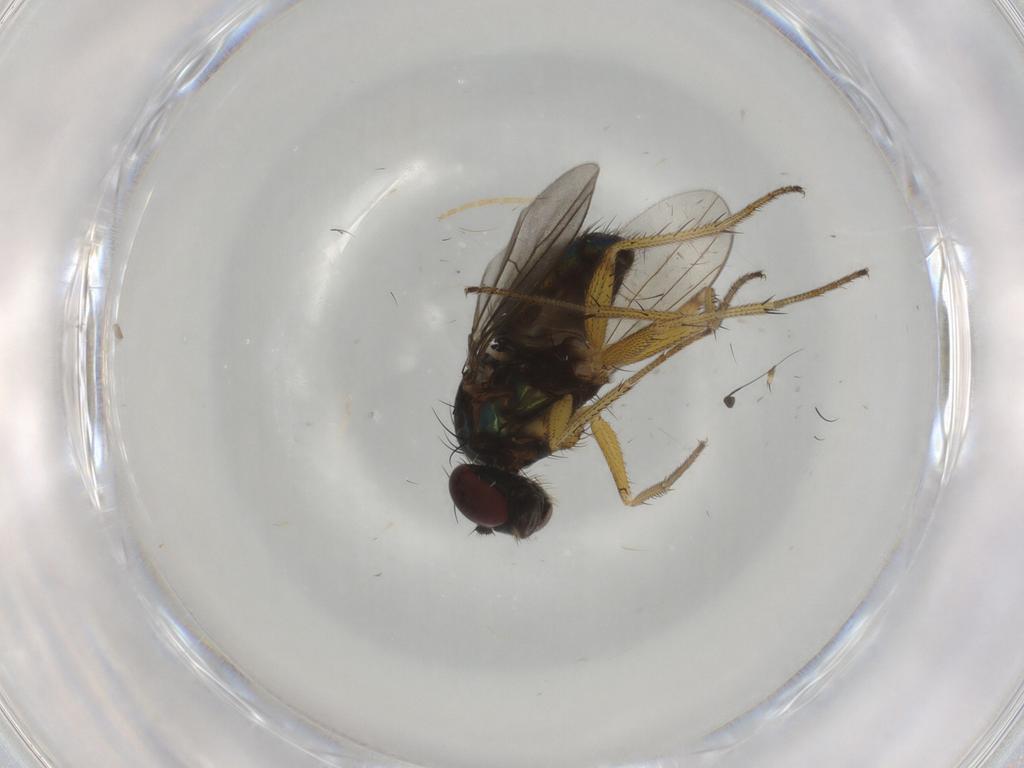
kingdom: Animalia
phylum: Arthropoda
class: Insecta
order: Diptera
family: Dolichopodidae
